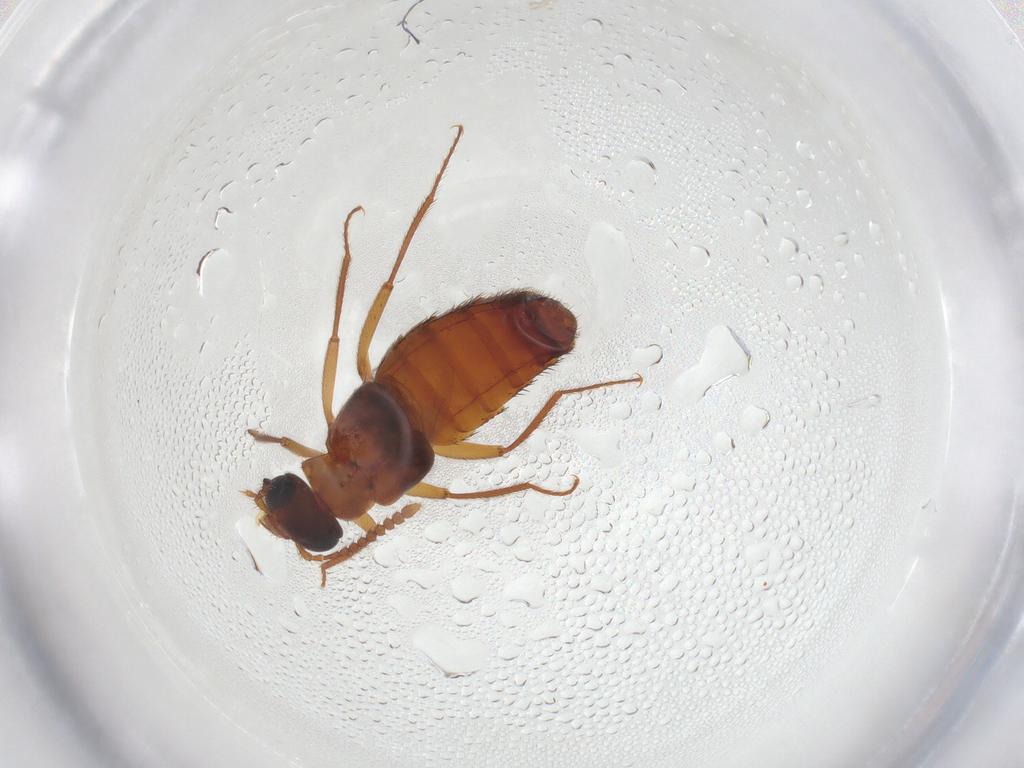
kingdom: Animalia
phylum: Arthropoda
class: Insecta
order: Coleoptera
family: Staphylinidae
